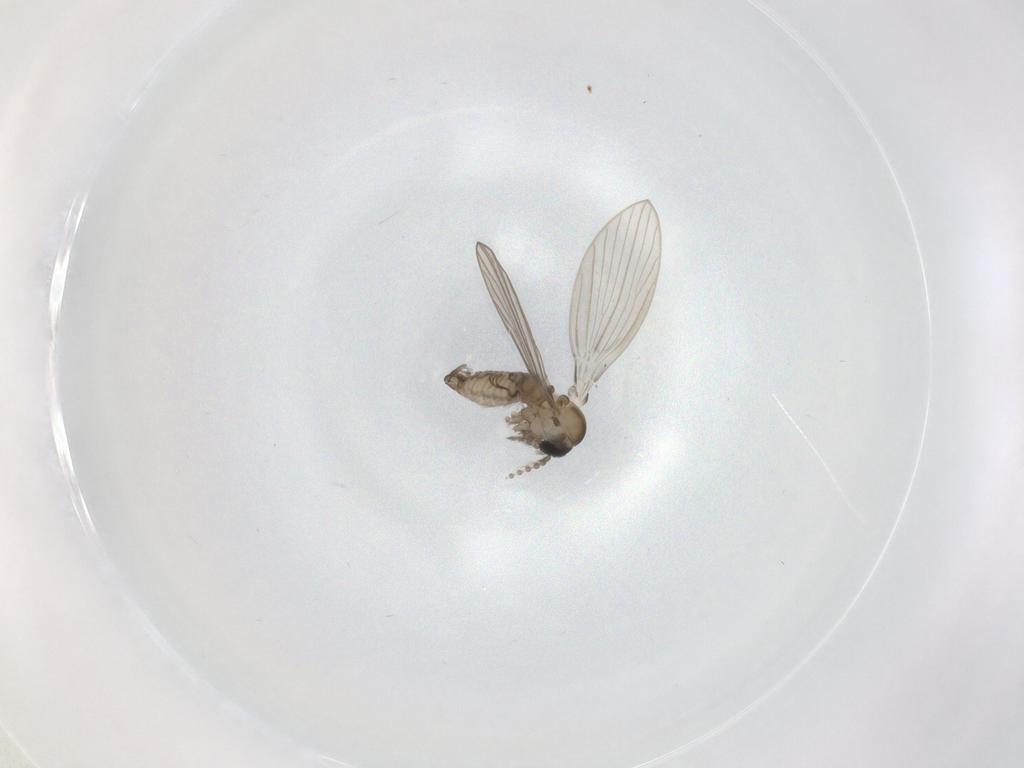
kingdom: Animalia
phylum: Arthropoda
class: Insecta
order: Diptera
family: Psychodidae
